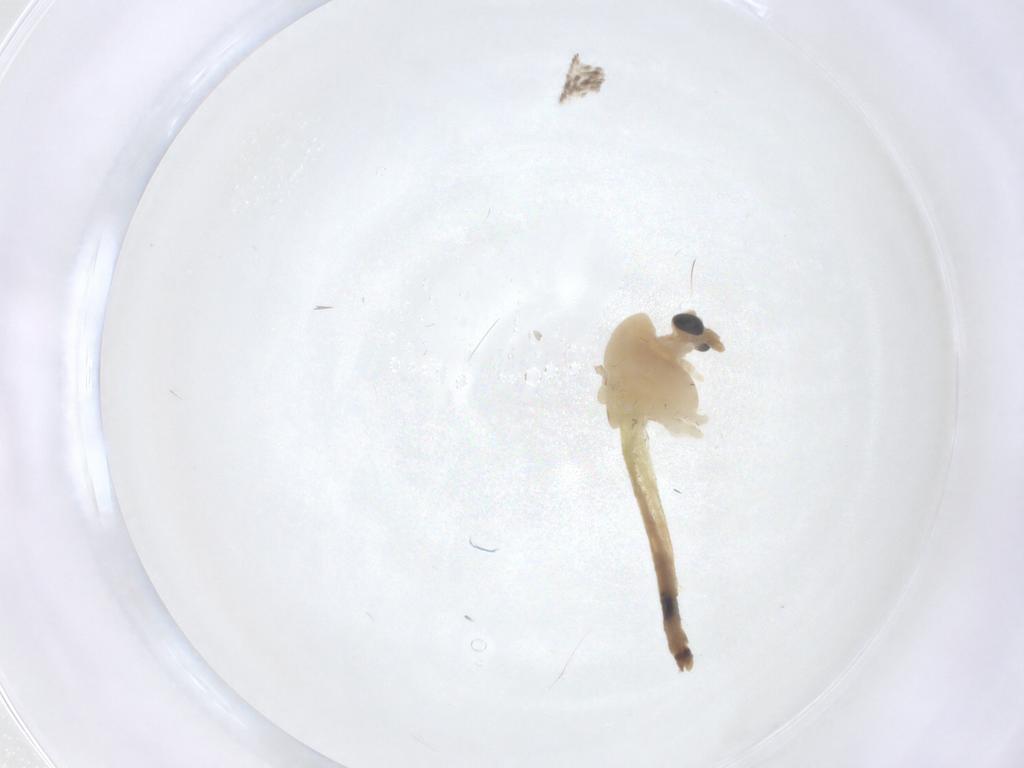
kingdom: Animalia
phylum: Arthropoda
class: Insecta
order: Diptera
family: Chironomidae
